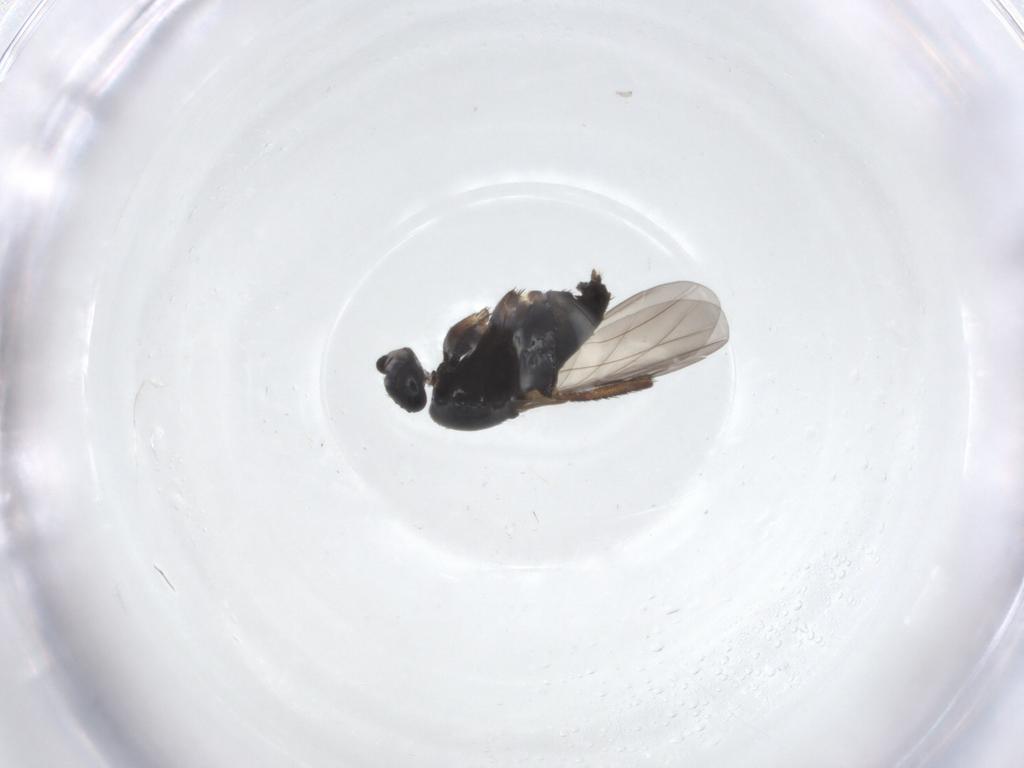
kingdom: Animalia
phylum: Arthropoda
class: Insecta
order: Diptera
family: Phoridae
